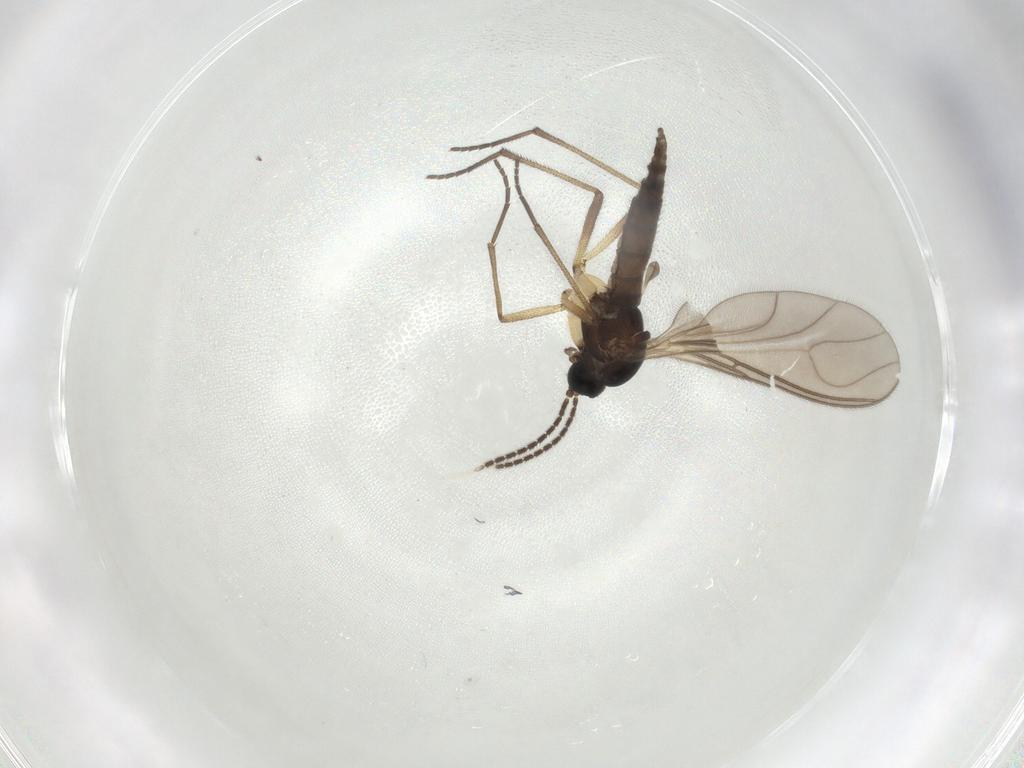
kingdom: Animalia
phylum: Arthropoda
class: Insecta
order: Diptera
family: Sciaridae
